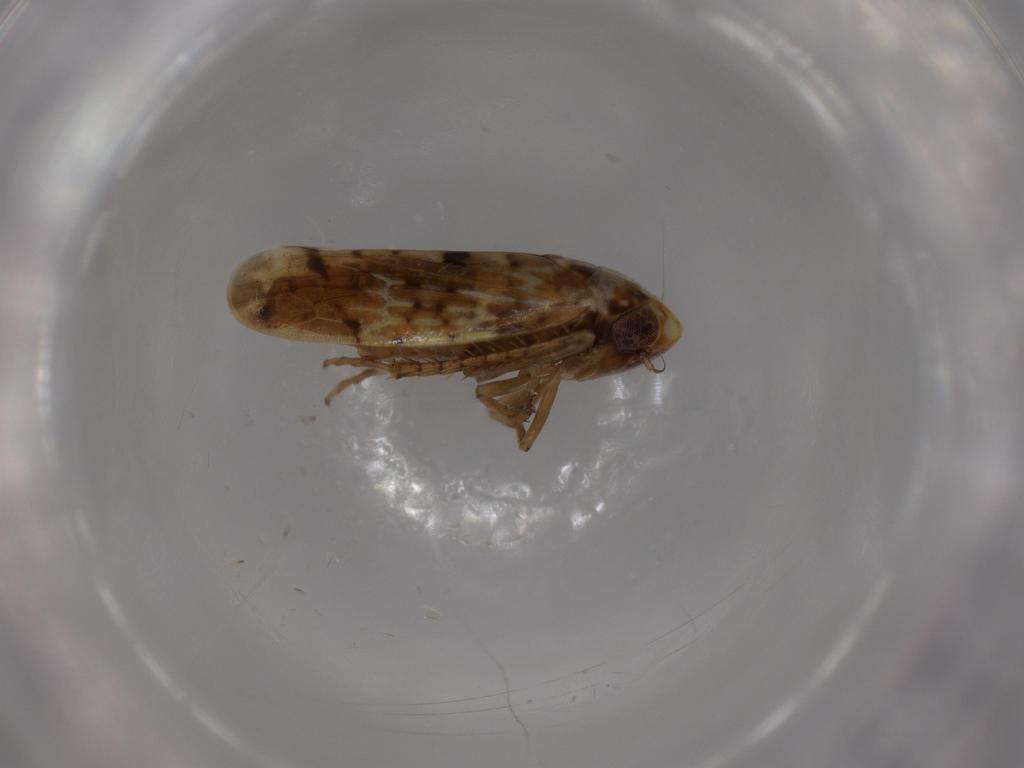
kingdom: Animalia
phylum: Arthropoda
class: Insecta
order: Hemiptera
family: Cicadellidae
